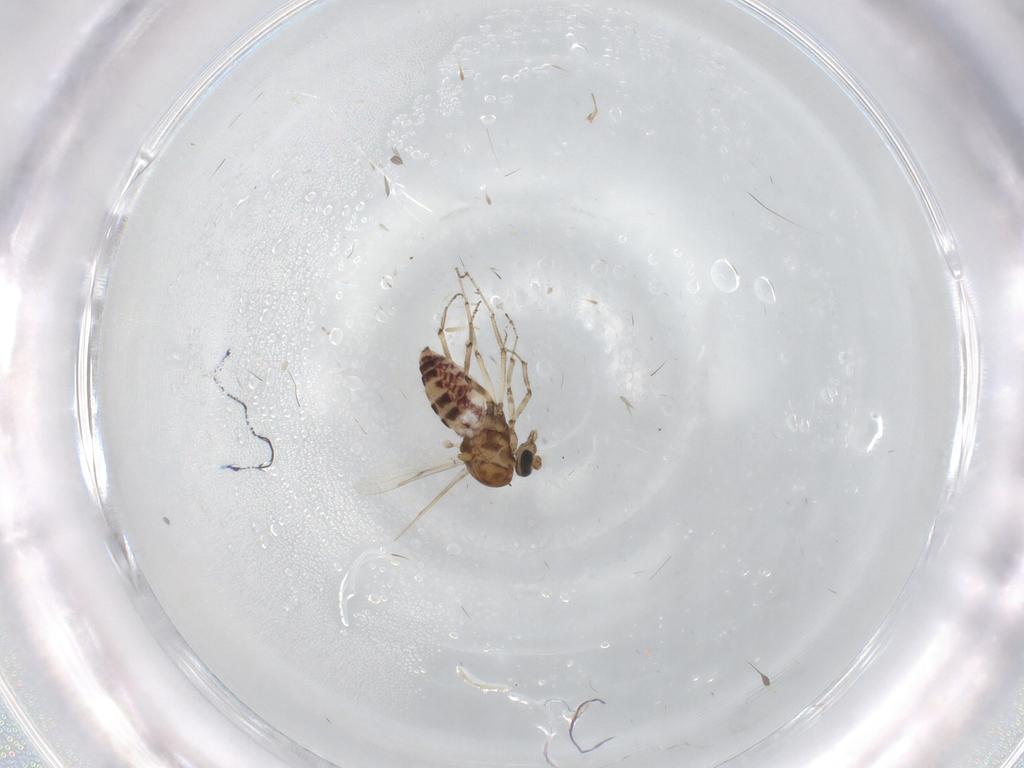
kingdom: Animalia
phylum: Arthropoda
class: Insecta
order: Diptera
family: Ceratopogonidae
